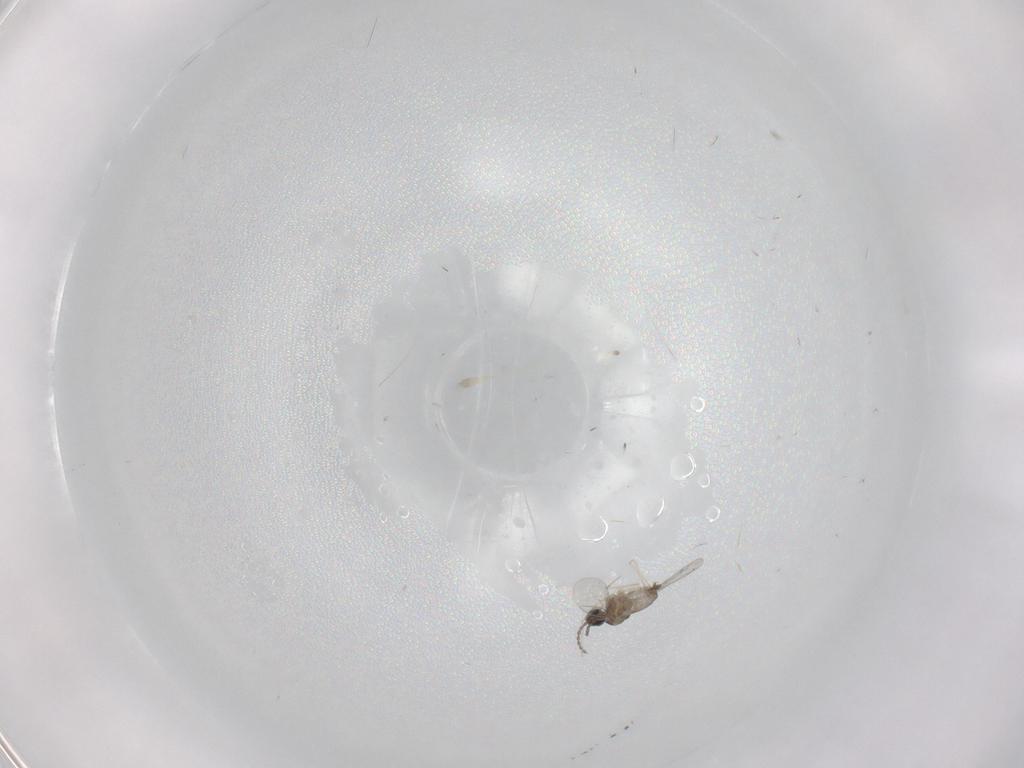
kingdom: Animalia
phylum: Arthropoda
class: Insecta
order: Diptera
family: Cecidomyiidae
